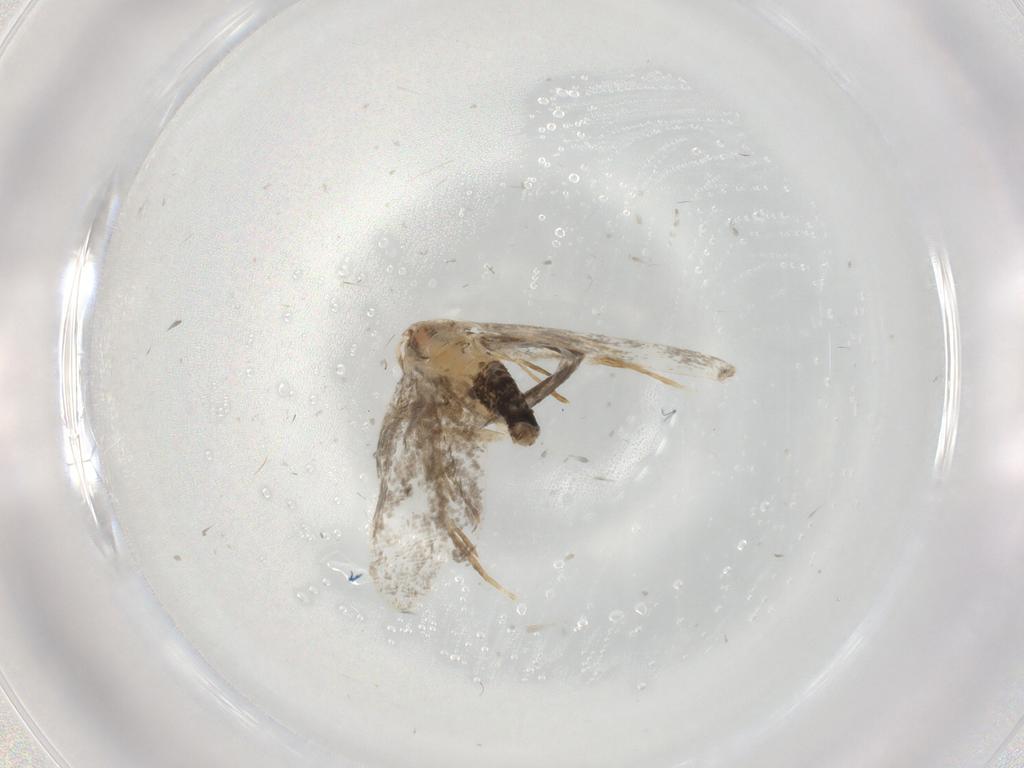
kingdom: Animalia
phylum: Arthropoda
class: Insecta
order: Lepidoptera
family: Psychidae
